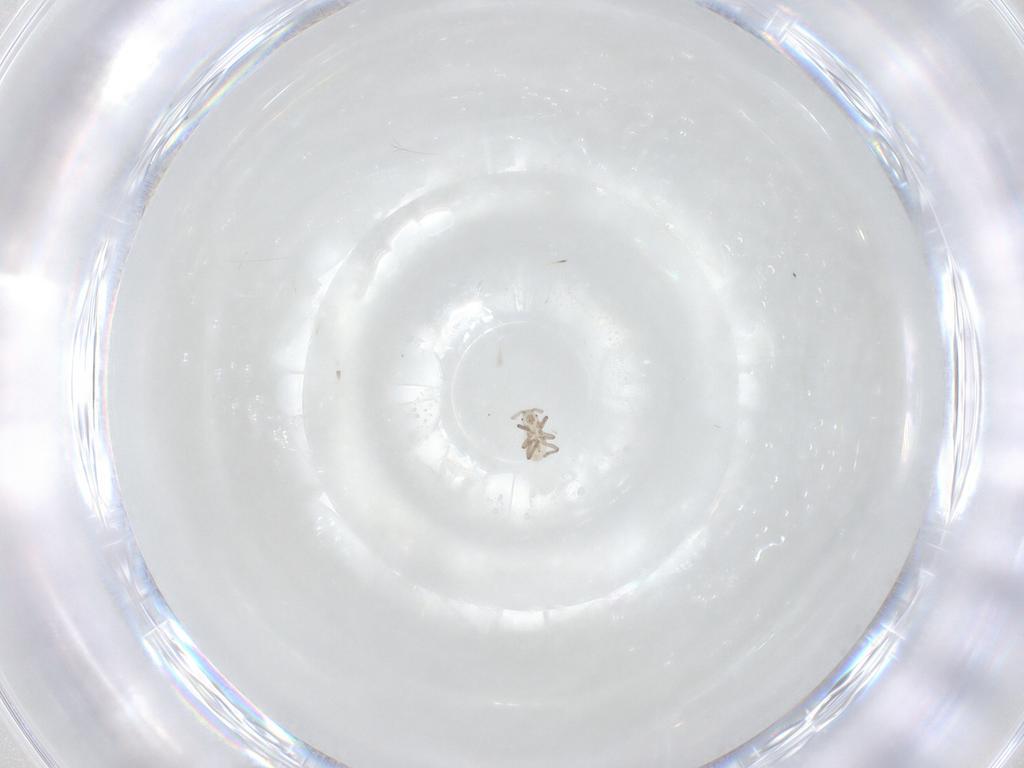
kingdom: Animalia
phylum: Arthropoda
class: Insecta
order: Hemiptera
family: Aphididae
